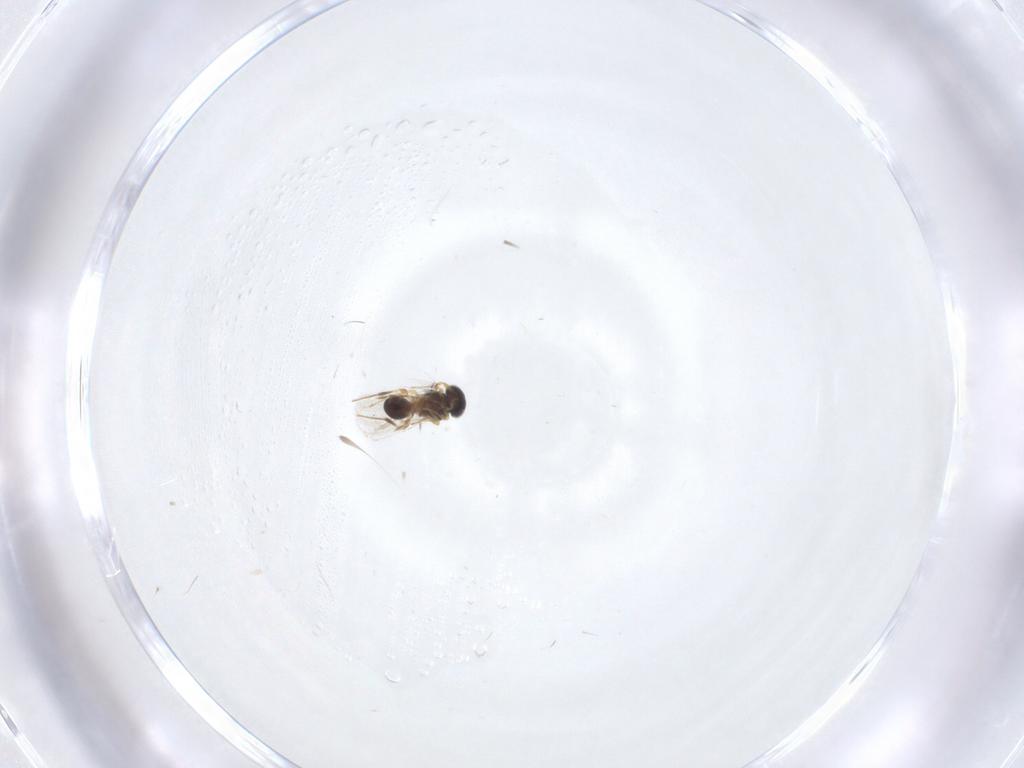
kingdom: Animalia
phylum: Arthropoda
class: Insecta
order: Hymenoptera
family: Platygastridae
